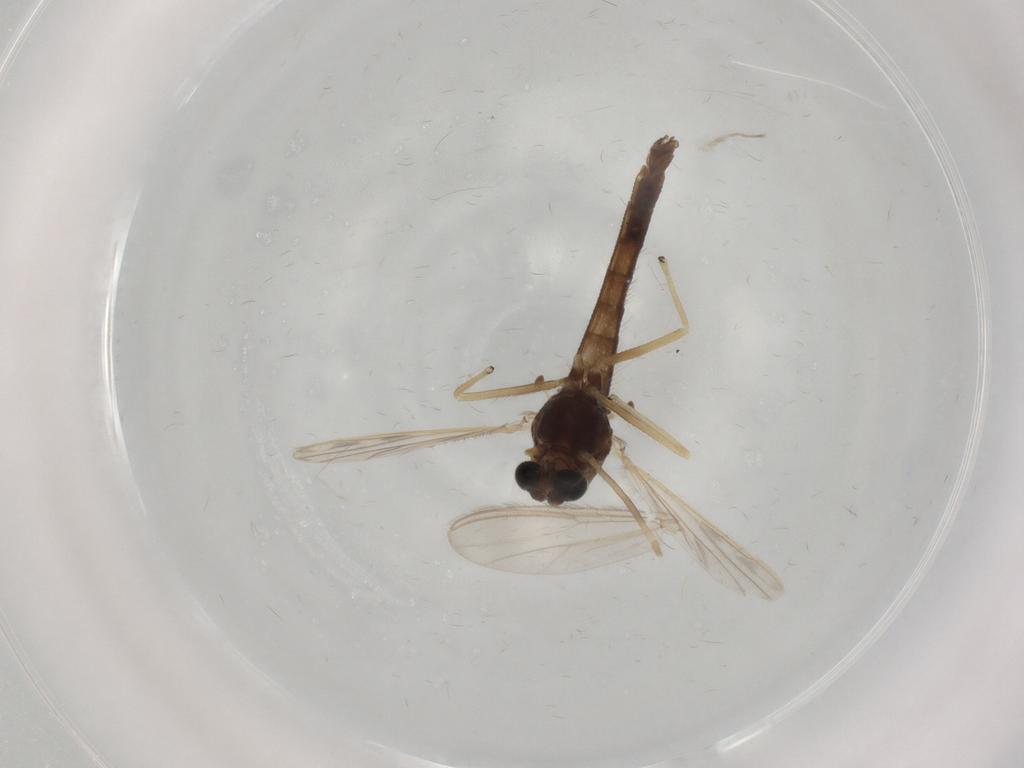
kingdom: Animalia
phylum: Arthropoda
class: Insecta
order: Diptera
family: Chironomidae
